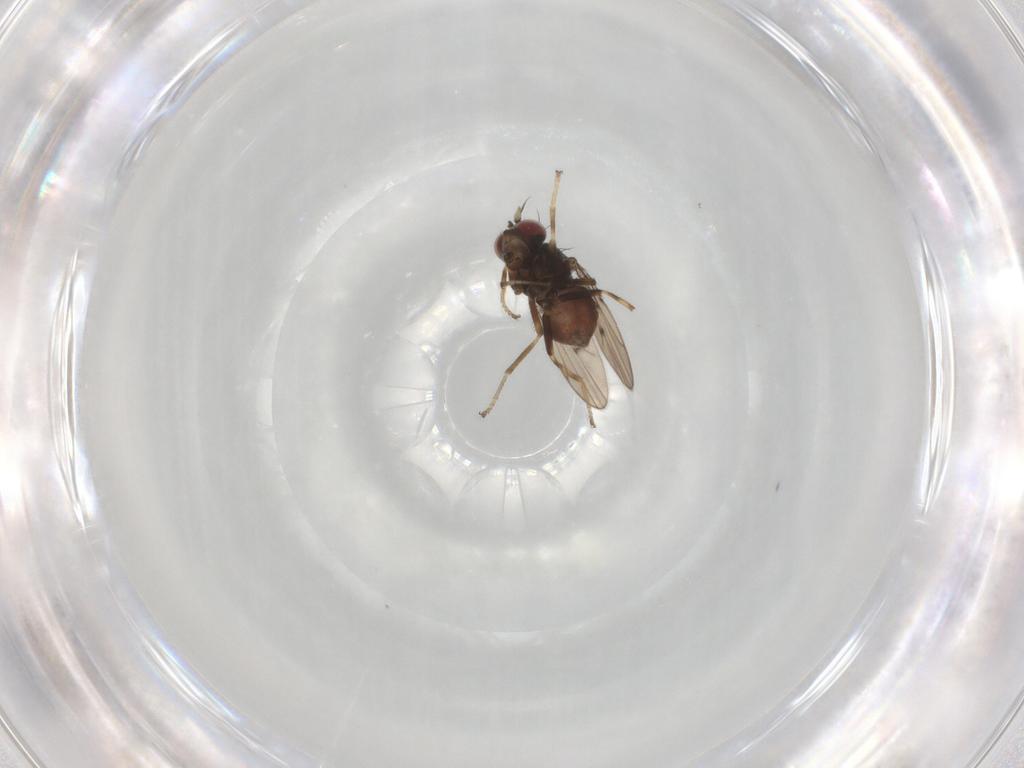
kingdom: Animalia
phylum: Arthropoda
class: Insecta
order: Diptera
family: Ephydridae
